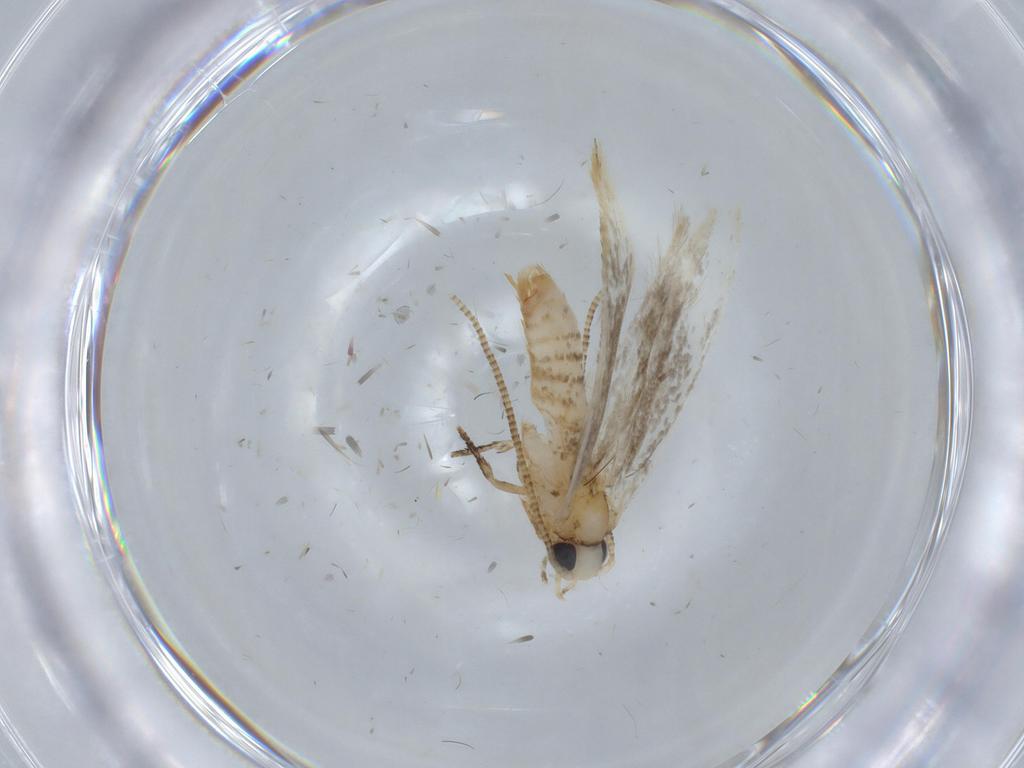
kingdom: Animalia
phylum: Arthropoda
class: Insecta
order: Lepidoptera
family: Tineidae
